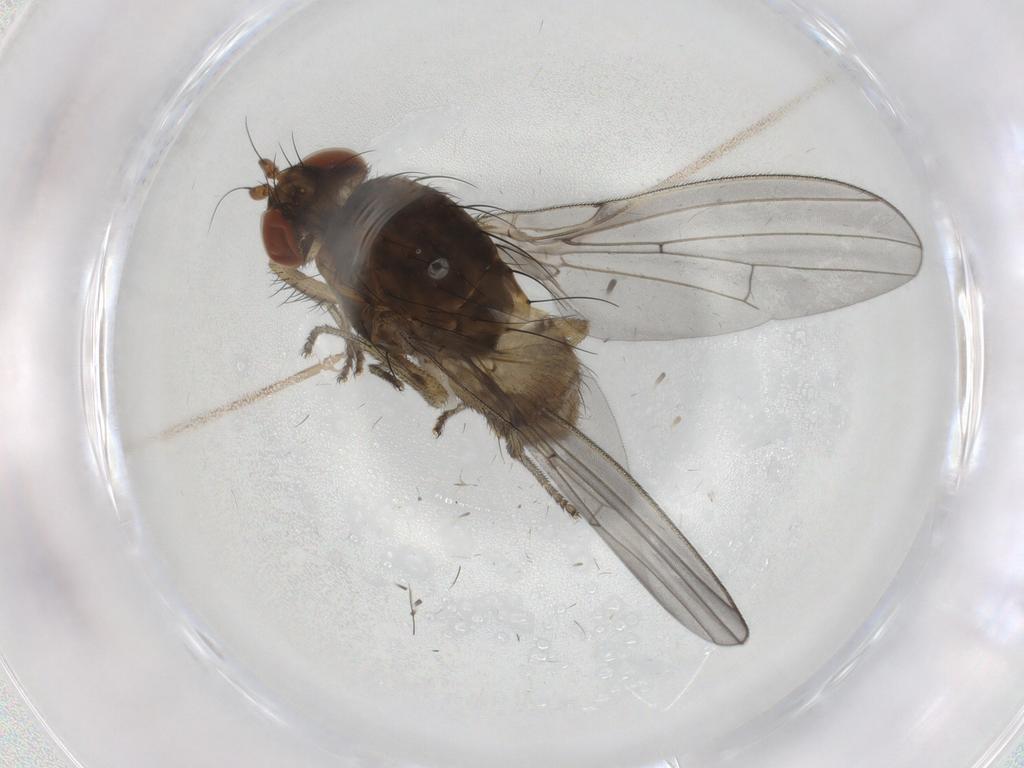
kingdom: Animalia
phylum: Arthropoda
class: Insecta
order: Diptera
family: Lauxaniidae
